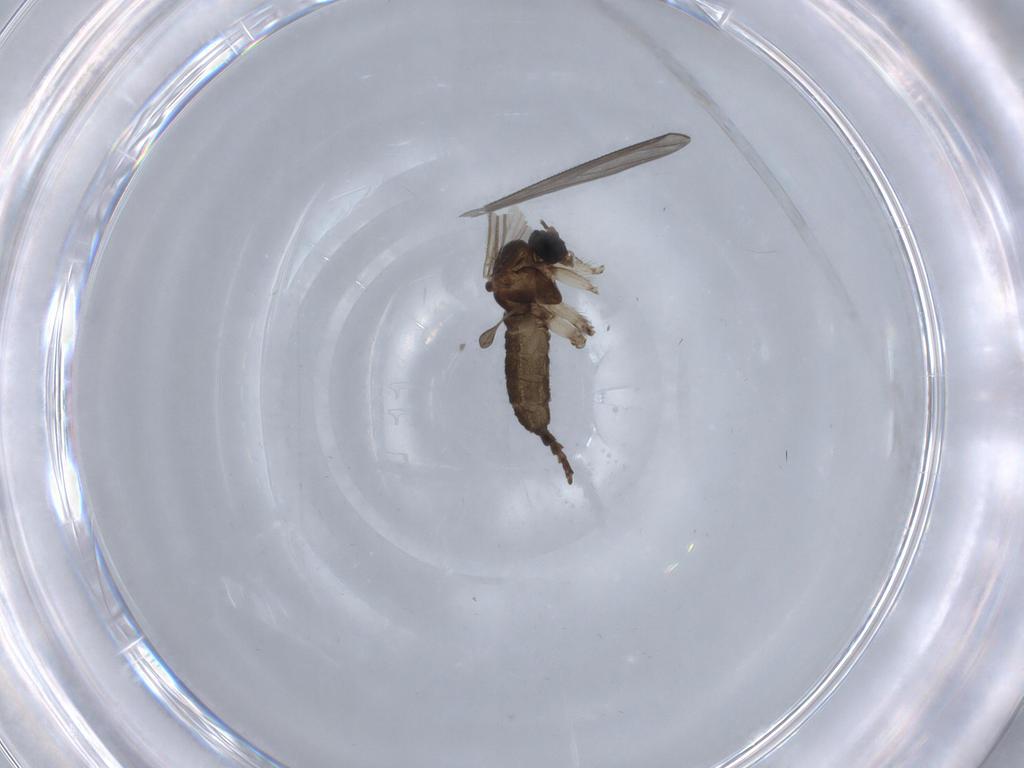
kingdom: Animalia
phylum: Arthropoda
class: Insecta
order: Diptera
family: Sciaridae
